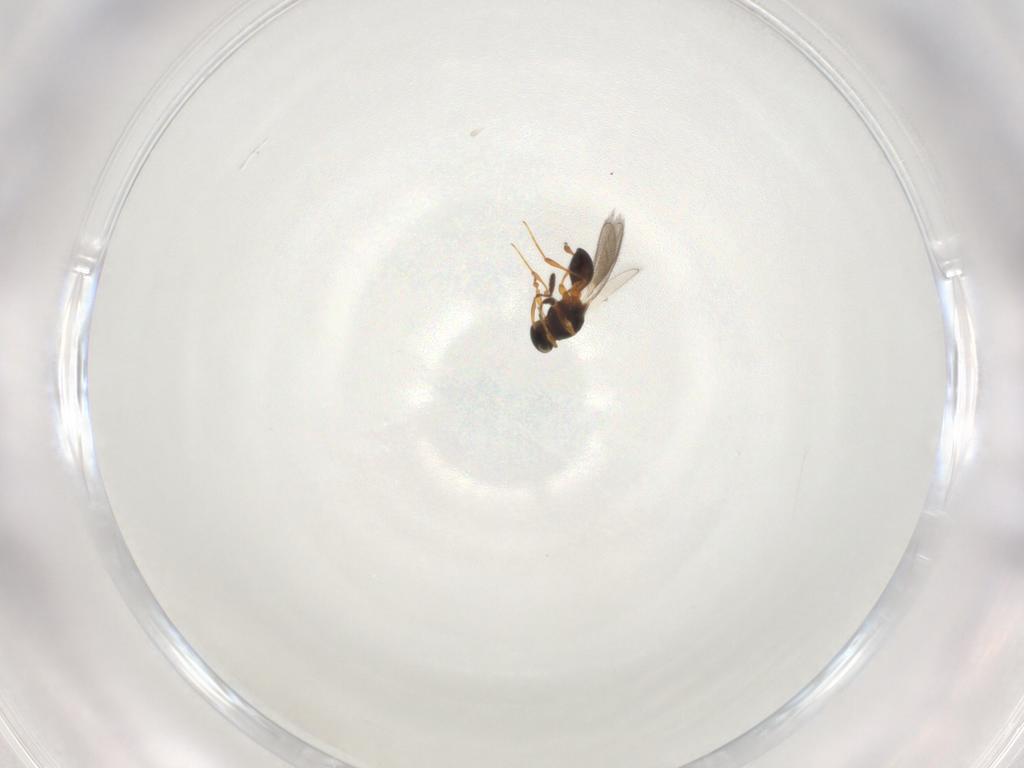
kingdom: Animalia
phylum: Arthropoda
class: Insecta
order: Hymenoptera
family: Platygastridae
